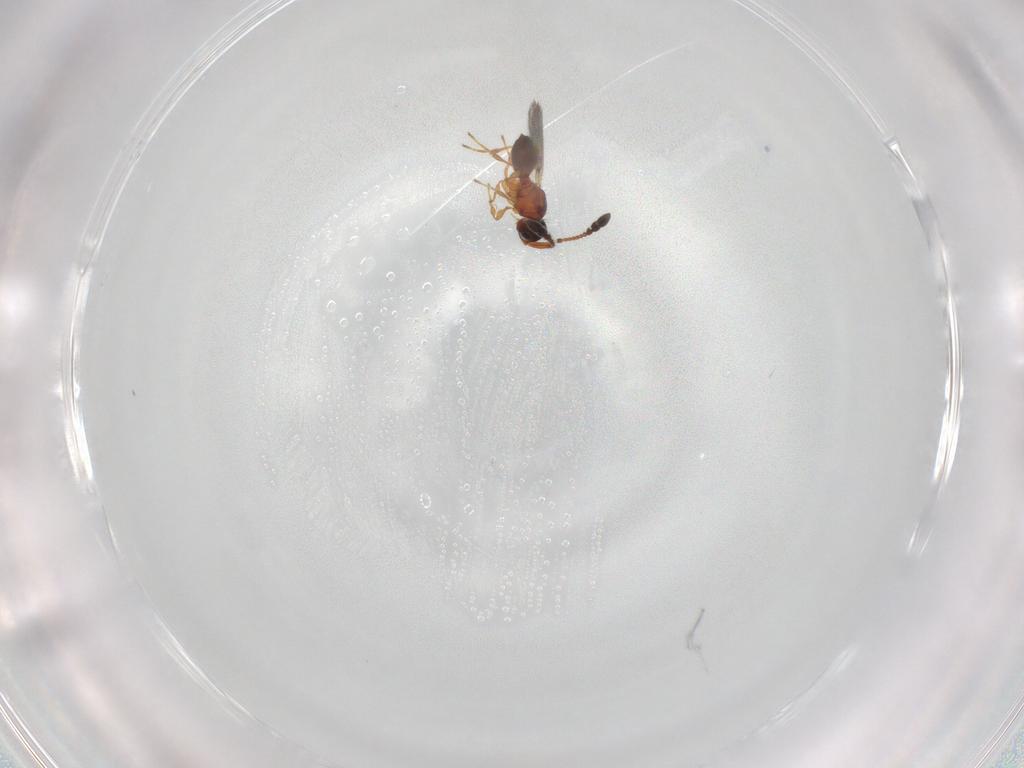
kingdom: Animalia
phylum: Arthropoda
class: Insecta
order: Hymenoptera
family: Diapriidae
